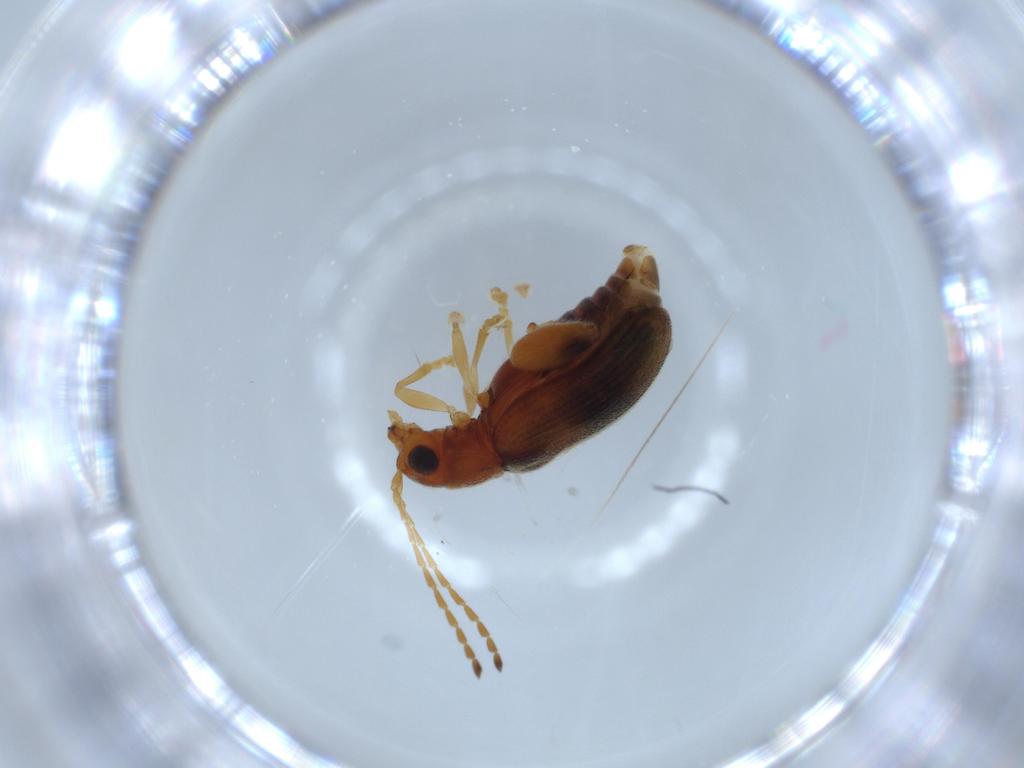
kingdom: Animalia
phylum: Arthropoda
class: Insecta
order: Coleoptera
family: Chrysomelidae
